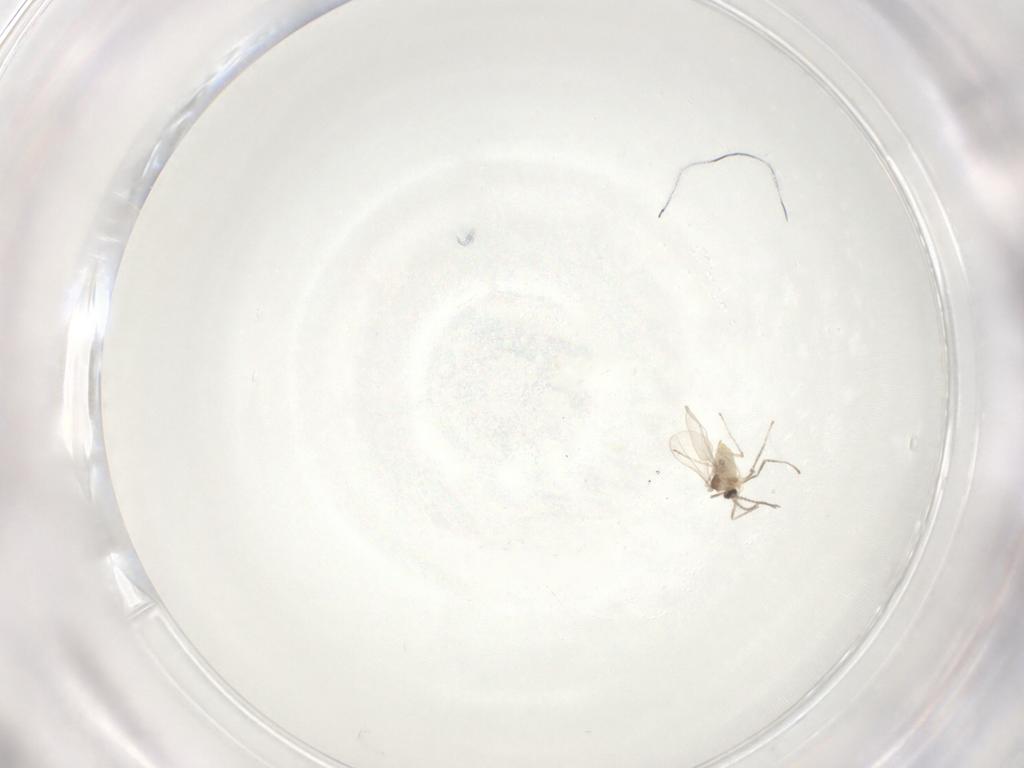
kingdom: Animalia
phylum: Arthropoda
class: Insecta
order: Diptera
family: Cecidomyiidae
